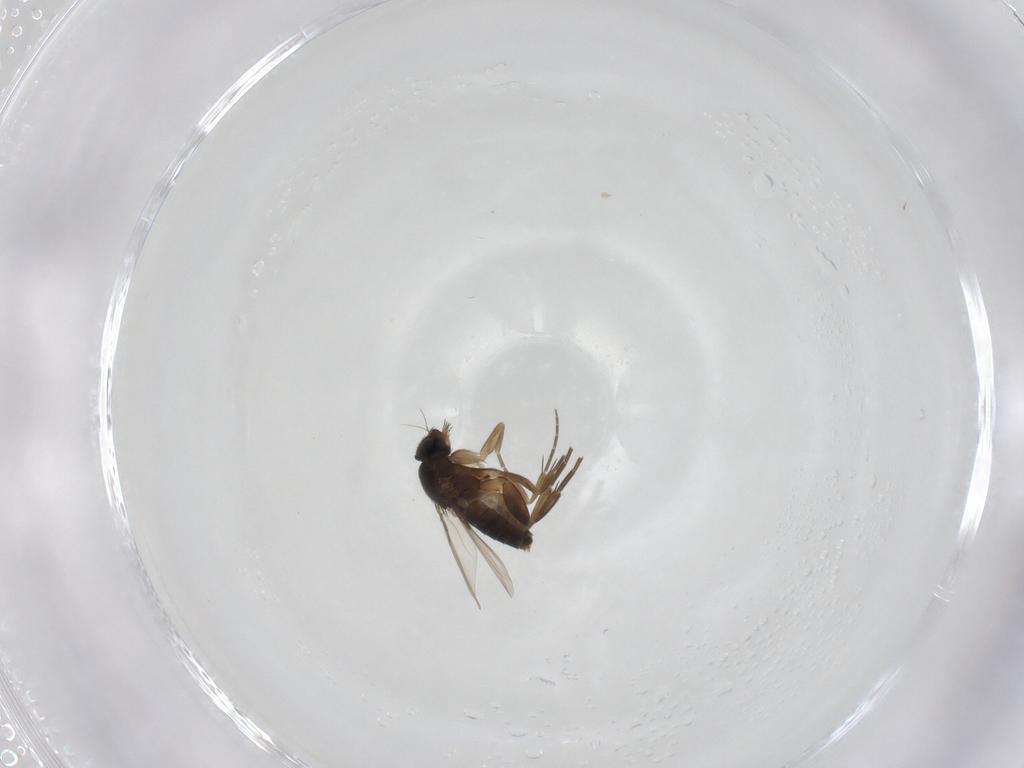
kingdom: Animalia
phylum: Arthropoda
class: Insecta
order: Diptera
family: Phoridae
